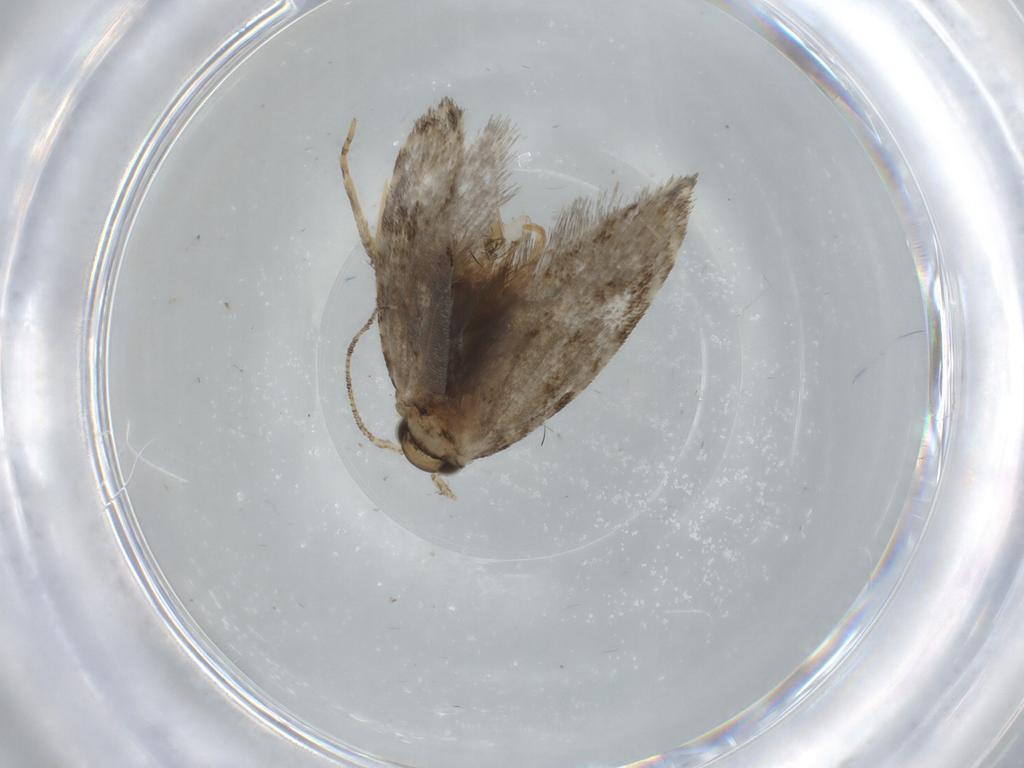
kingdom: Animalia
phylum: Arthropoda
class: Insecta
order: Lepidoptera
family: Tineidae
